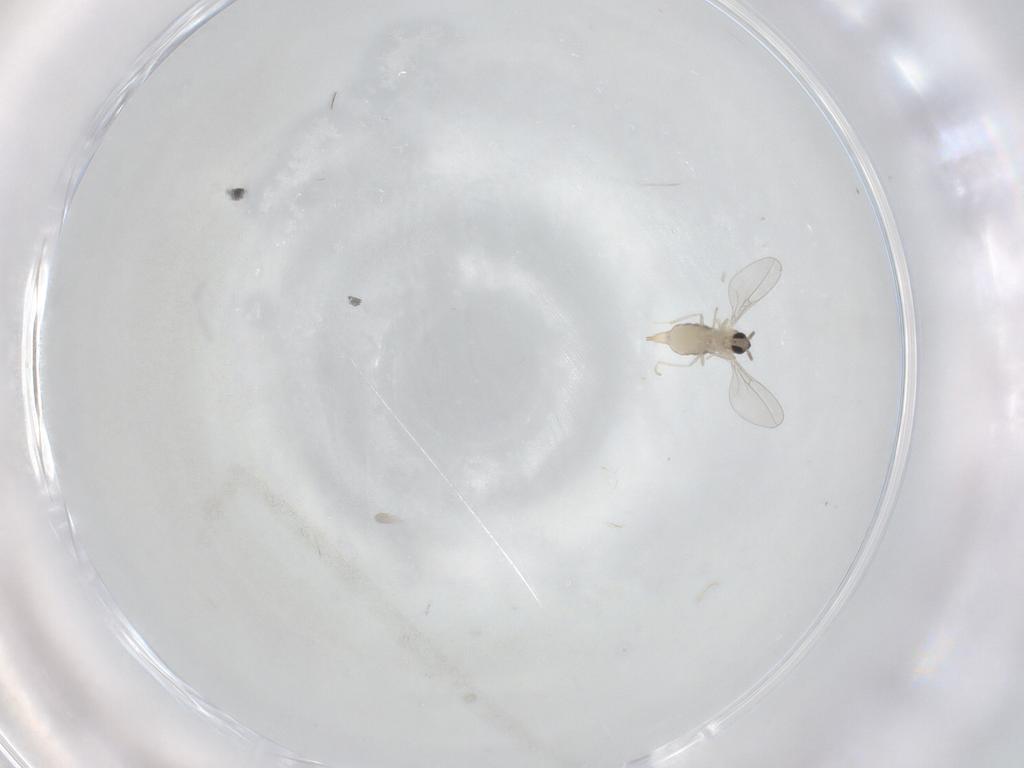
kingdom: Animalia
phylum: Arthropoda
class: Insecta
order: Diptera
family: Cecidomyiidae
